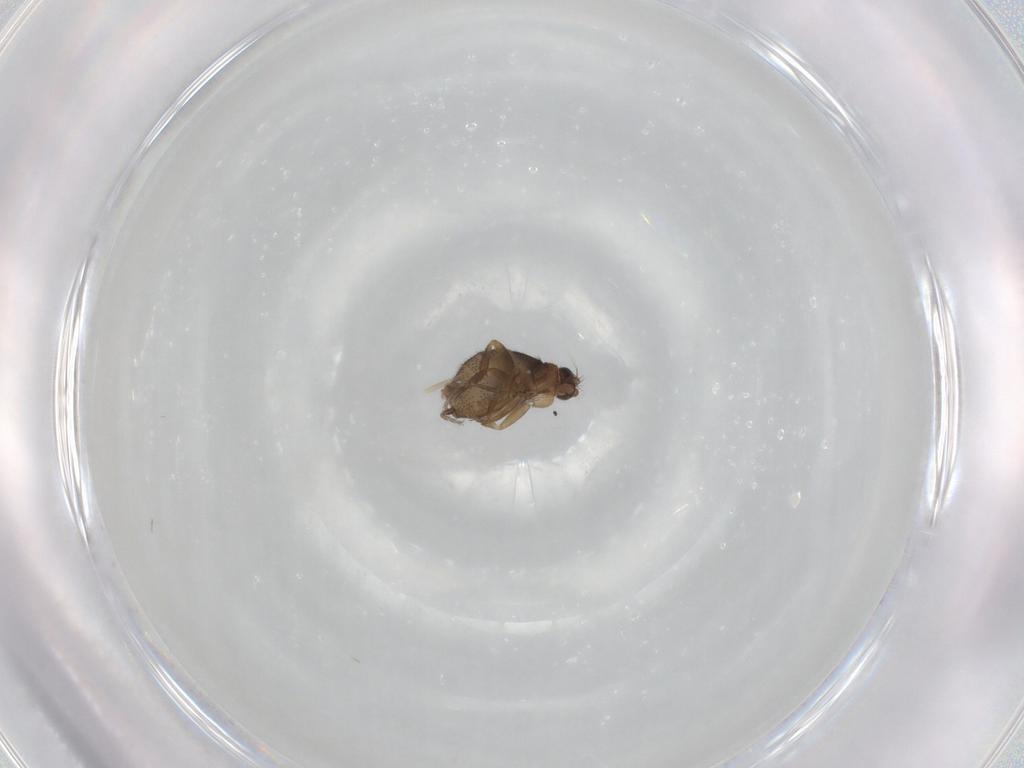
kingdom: Animalia
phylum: Arthropoda
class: Insecta
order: Diptera
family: Phoridae
